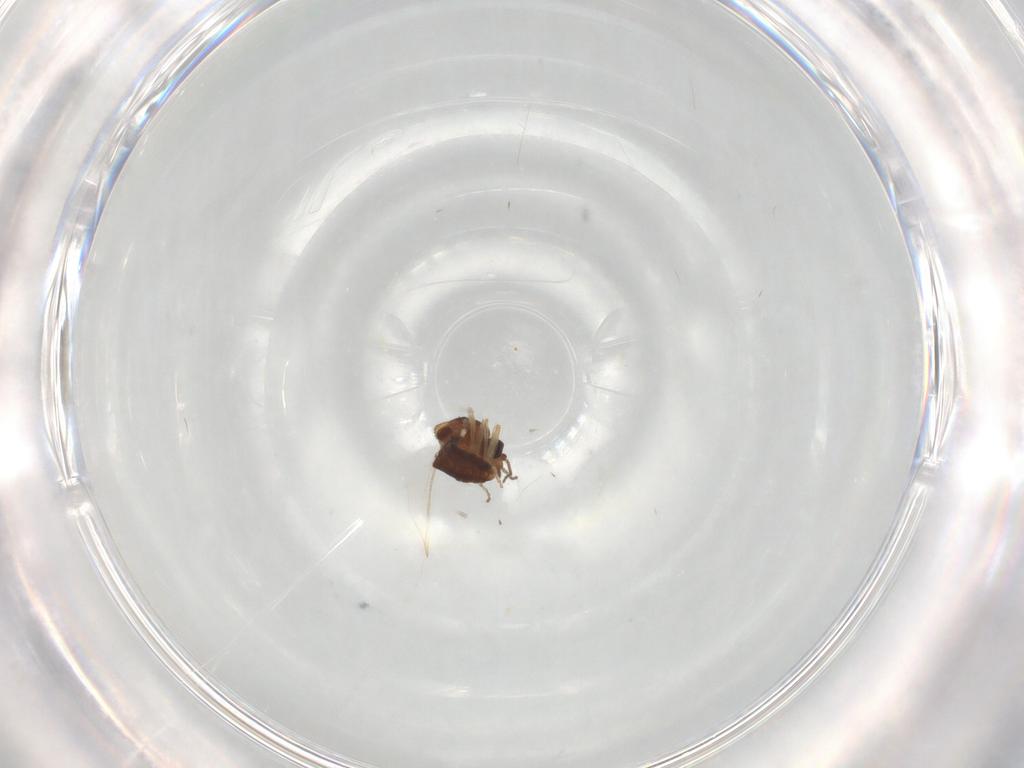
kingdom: Animalia
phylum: Arthropoda
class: Insecta
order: Diptera
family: Ceratopogonidae
